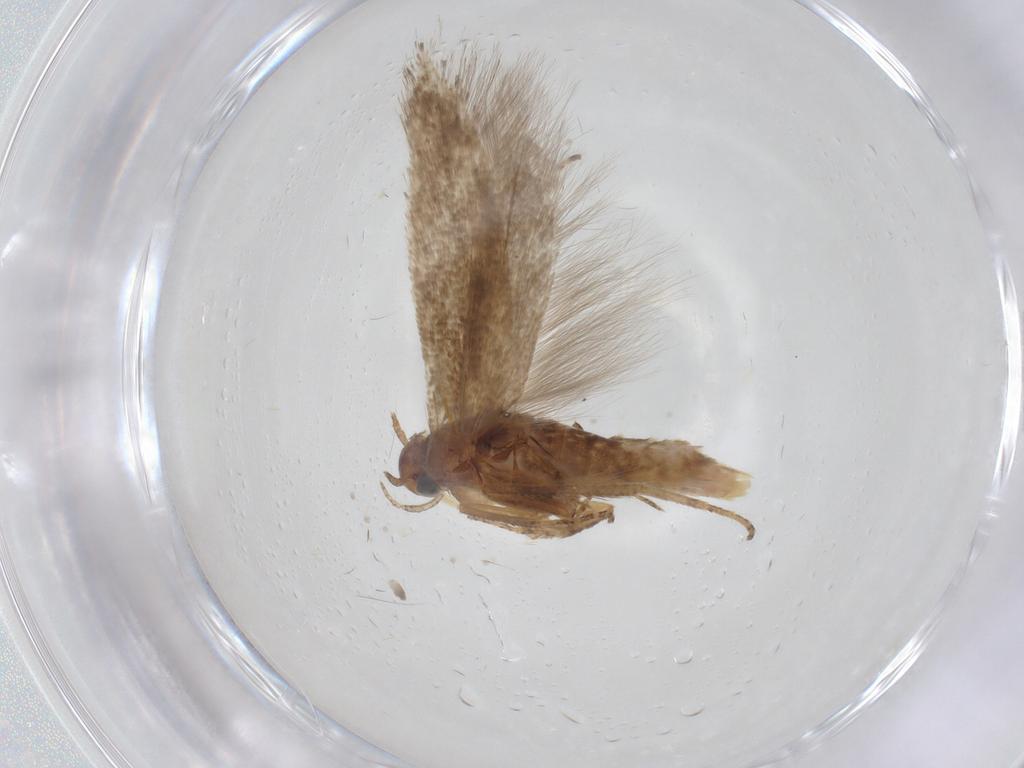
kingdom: Animalia
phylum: Arthropoda
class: Insecta
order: Lepidoptera
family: Gelechiidae
